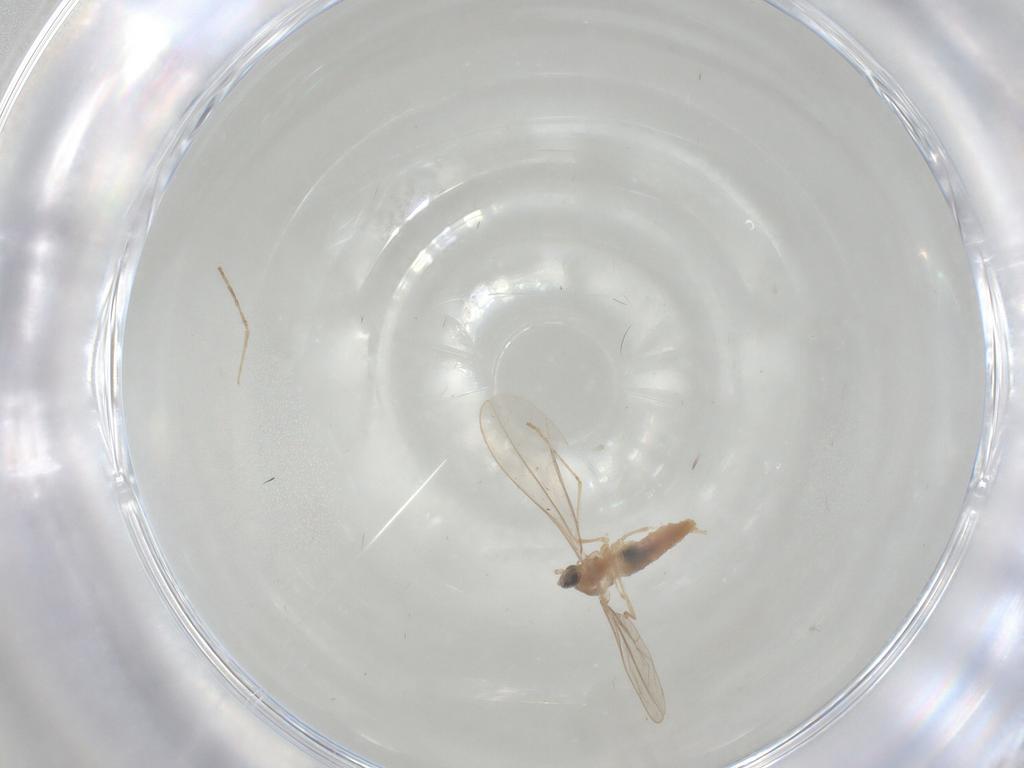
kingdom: Animalia
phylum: Arthropoda
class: Insecta
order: Diptera
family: Cecidomyiidae
